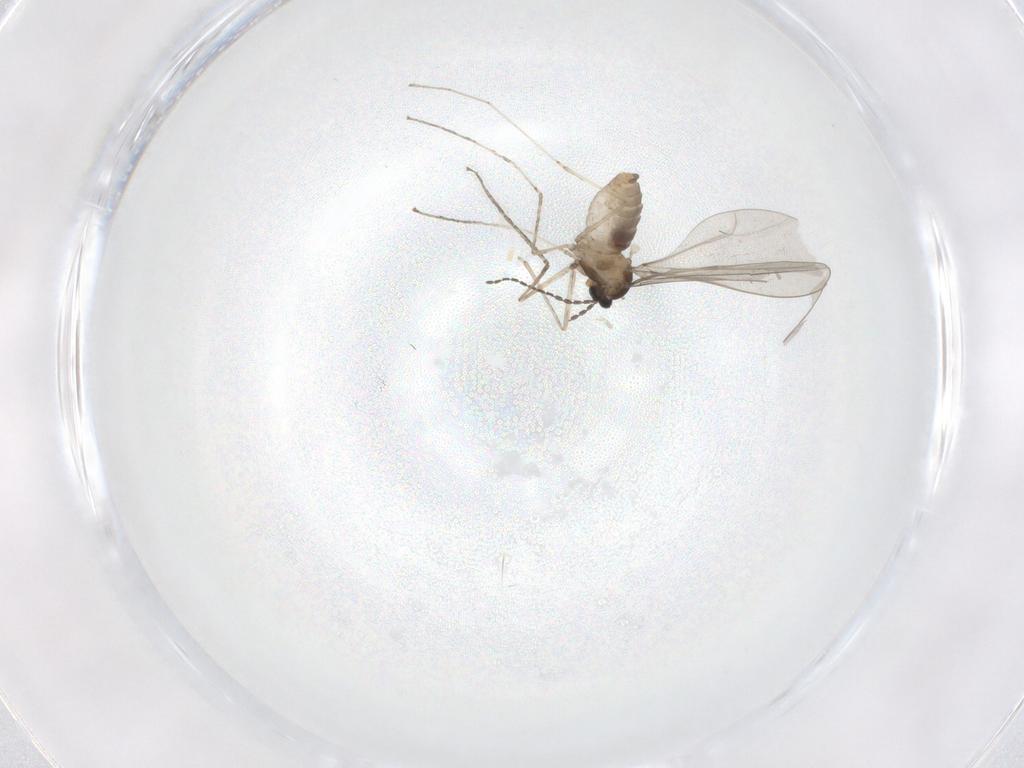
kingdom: Animalia
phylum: Arthropoda
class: Insecta
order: Diptera
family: Cecidomyiidae
